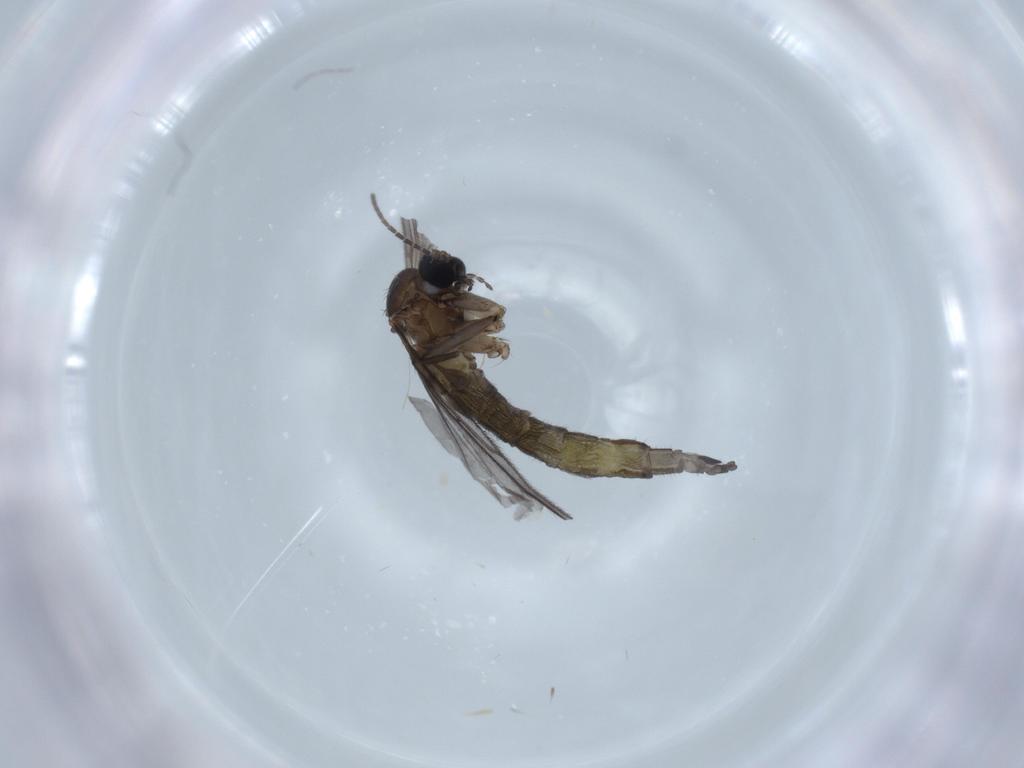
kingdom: Animalia
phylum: Arthropoda
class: Insecta
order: Diptera
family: Sciaridae
